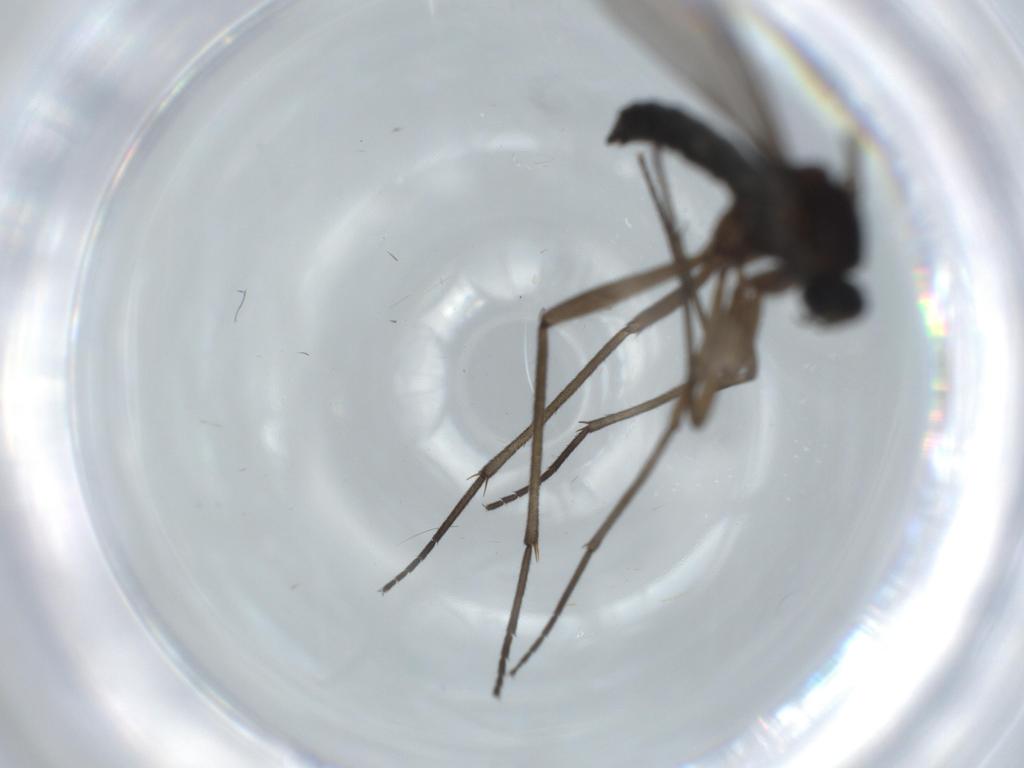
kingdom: Animalia
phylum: Arthropoda
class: Insecta
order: Diptera
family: Sciaridae
